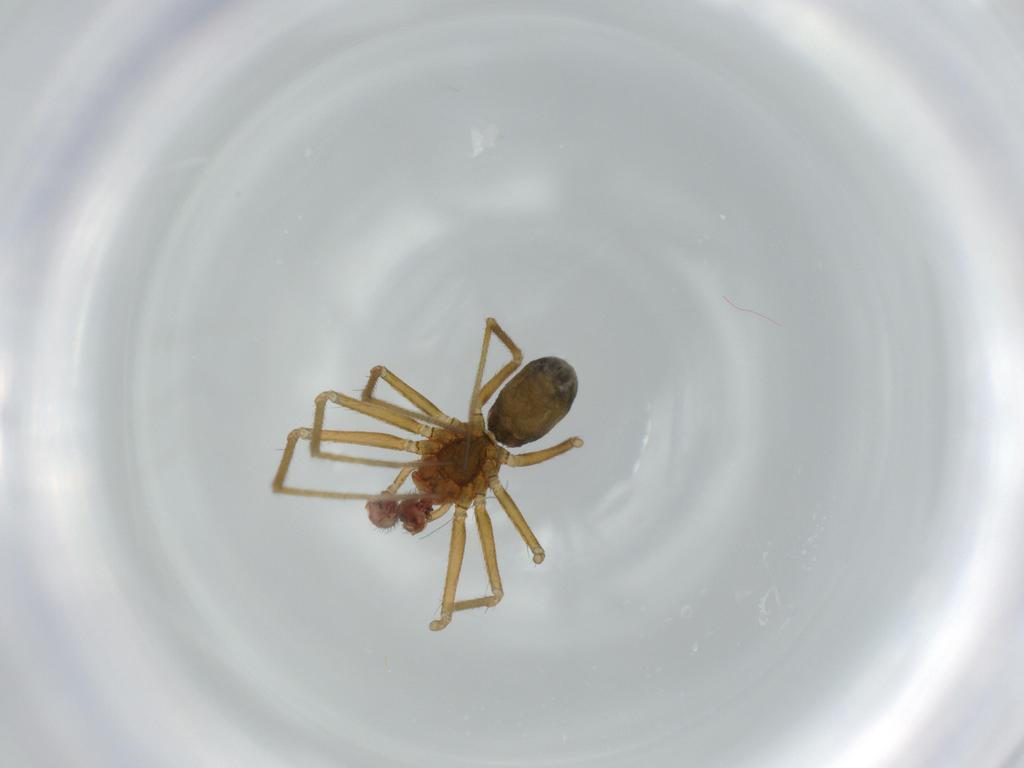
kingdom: Animalia
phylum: Arthropoda
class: Arachnida
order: Araneae
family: Linyphiidae
